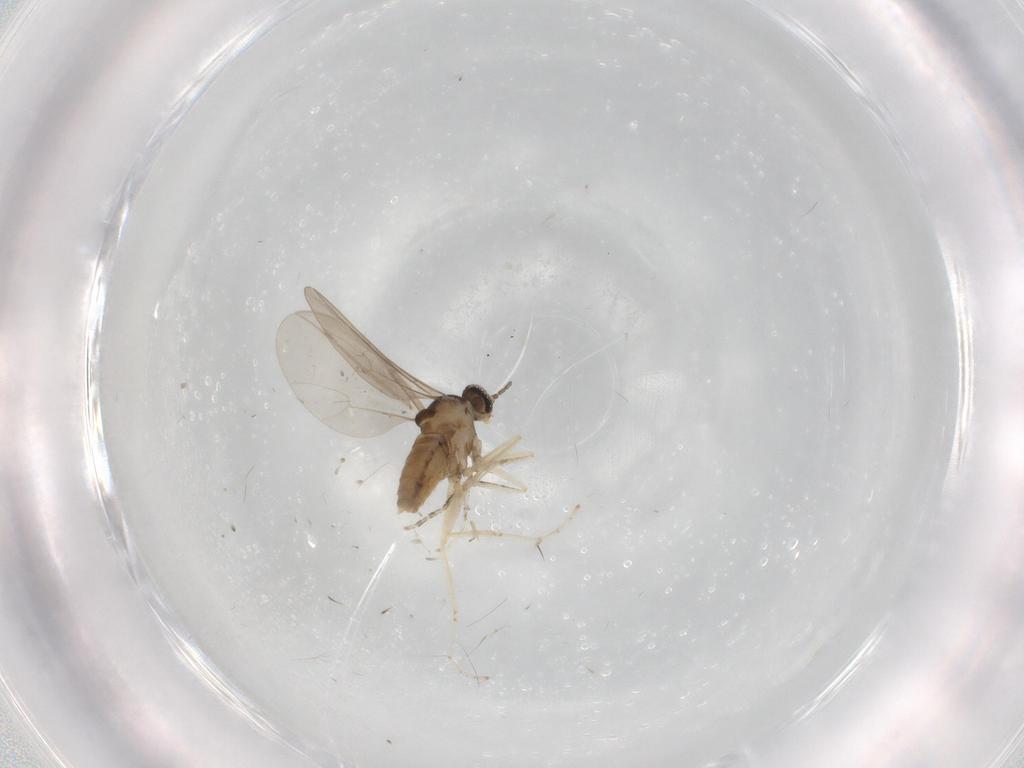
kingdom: Animalia
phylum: Arthropoda
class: Insecta
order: Diptera
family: Cecidomyiidae
